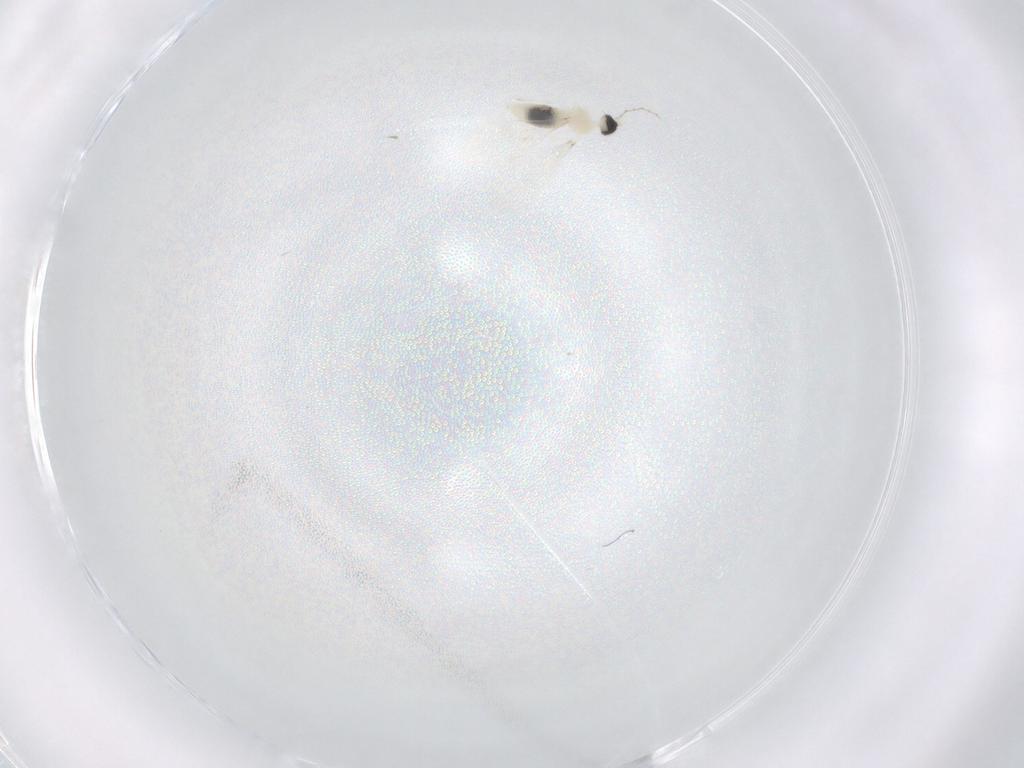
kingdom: Animalia
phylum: Arthropoda
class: Insecta
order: Diptera
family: Cecidomyiidae
